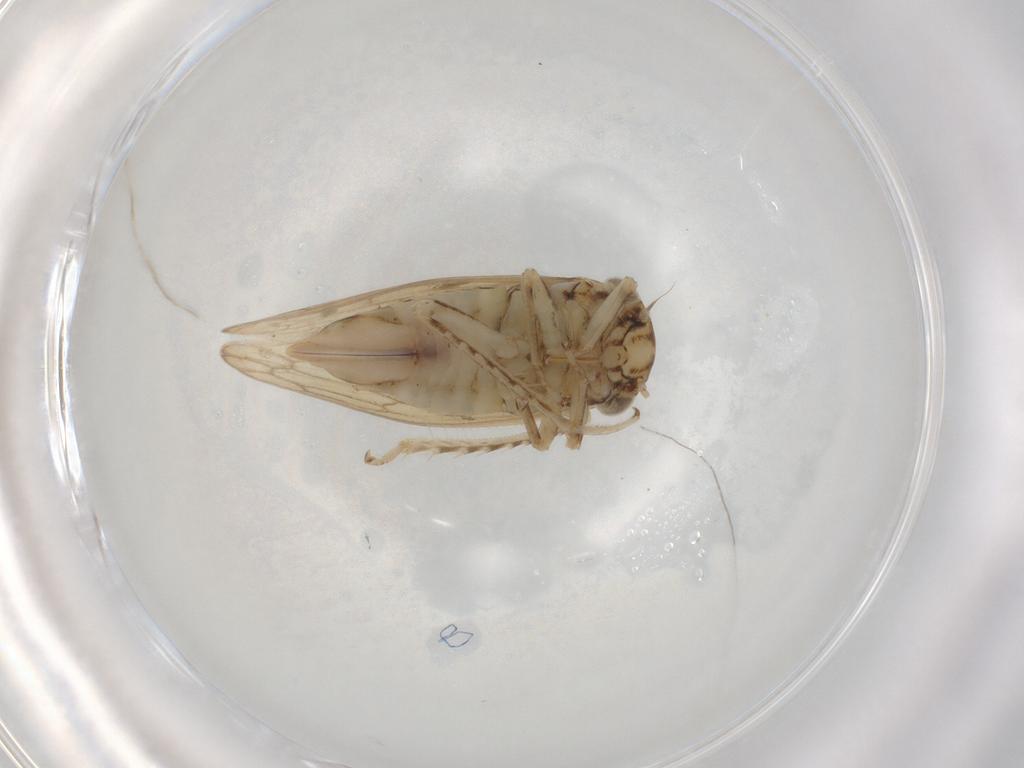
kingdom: Animalia
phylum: Arthropoda
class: Insecta
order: Hemiptera
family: Cicadellidae
